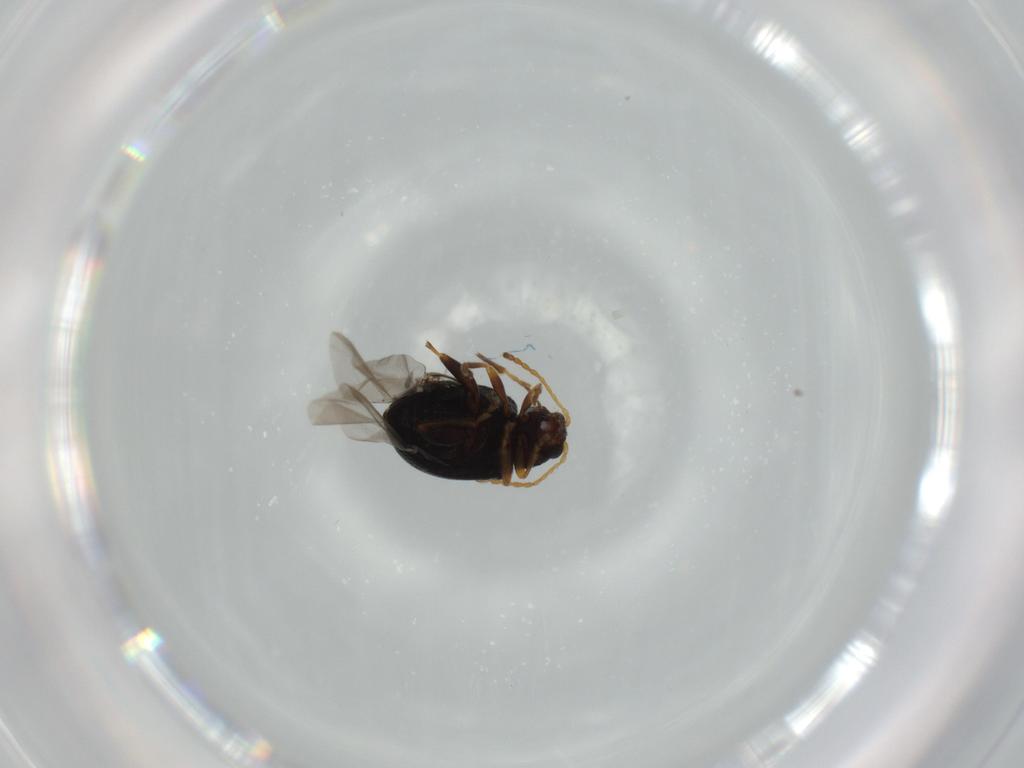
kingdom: Animalia
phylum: Arthropoda
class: Insecta
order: Coleoptera
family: Chrysomelidae
